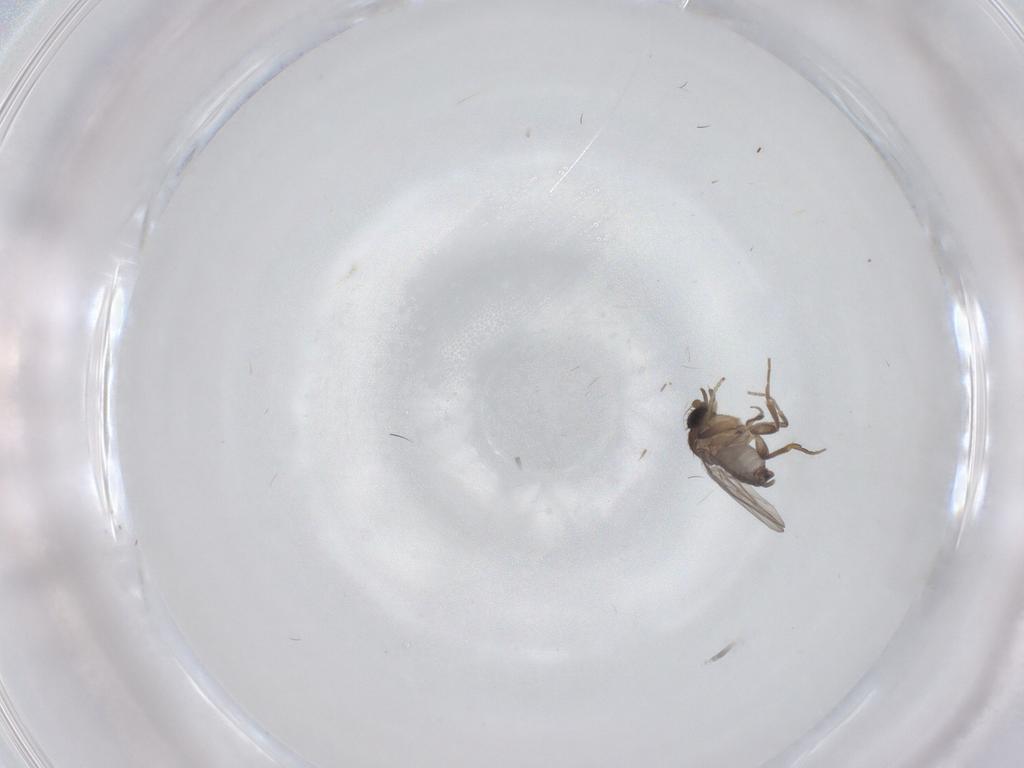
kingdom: Animalia
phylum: Arthropoda
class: Insecta
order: Diptera
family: Phoridae
